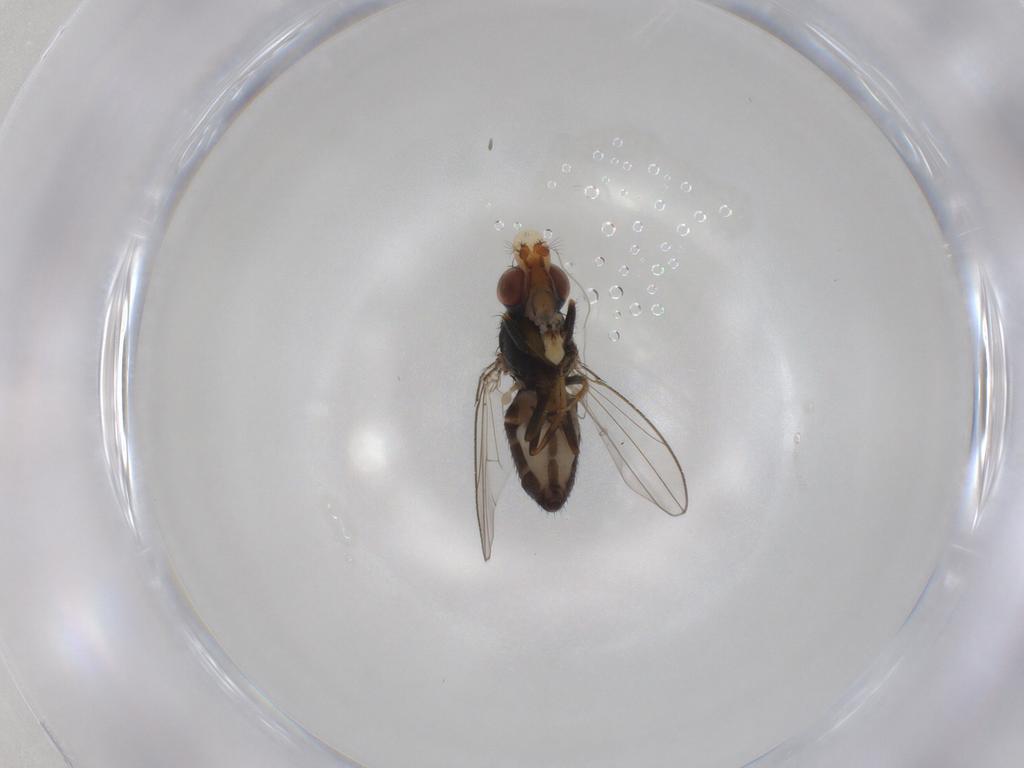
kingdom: Animalia
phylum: Arthropoda
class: Insecta
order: Diptera
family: Ephydridae
